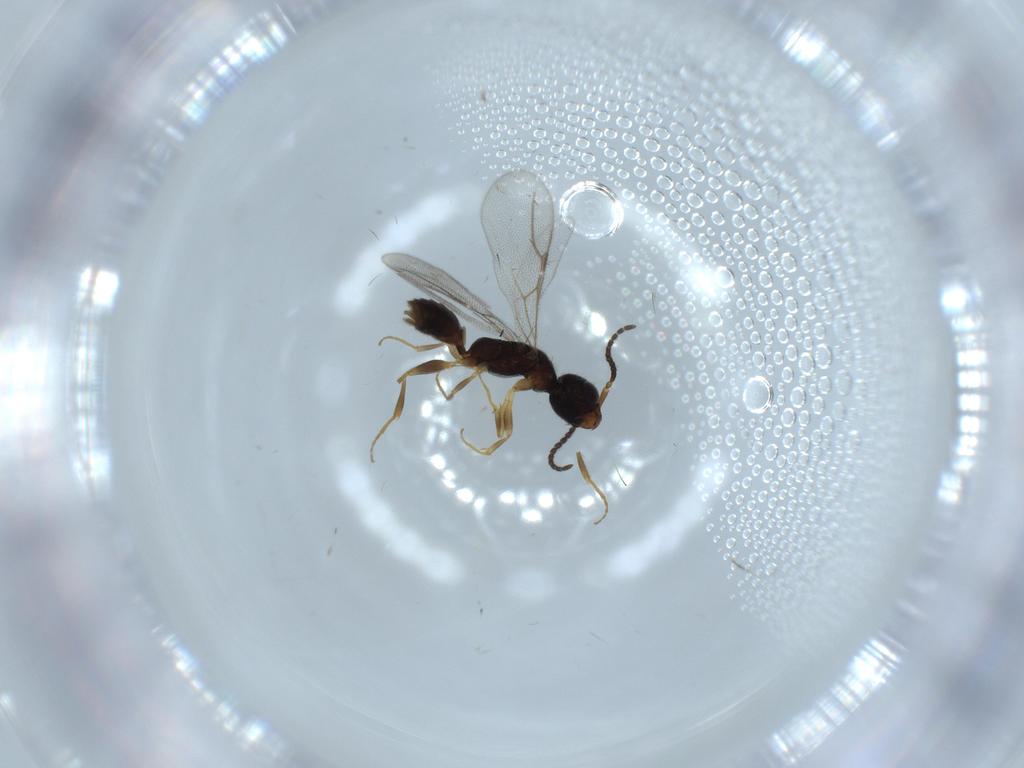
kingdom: Animalia
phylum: Arthropoda
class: Insecta
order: Hymenoptera
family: Bethylidae
